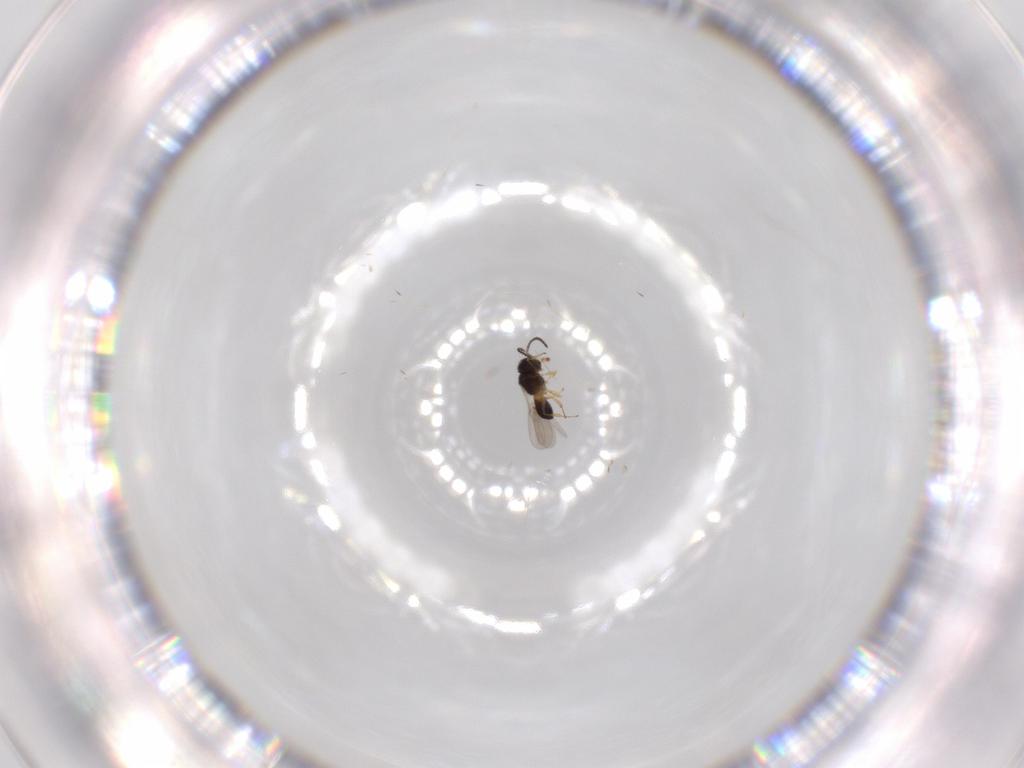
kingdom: Animalia
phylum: Arthropoda
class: Insecta
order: Hymenoptera
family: Scelionidae
